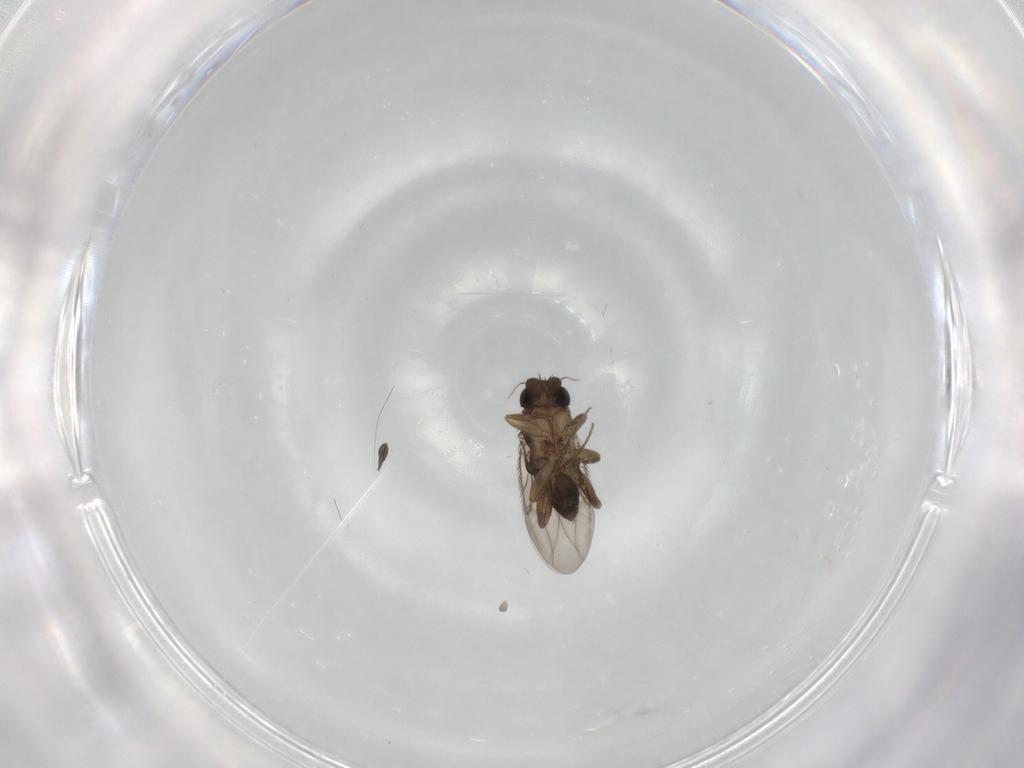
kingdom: Animalia
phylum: Arthropoda
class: Insecta
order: Diptera
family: Phoridae
